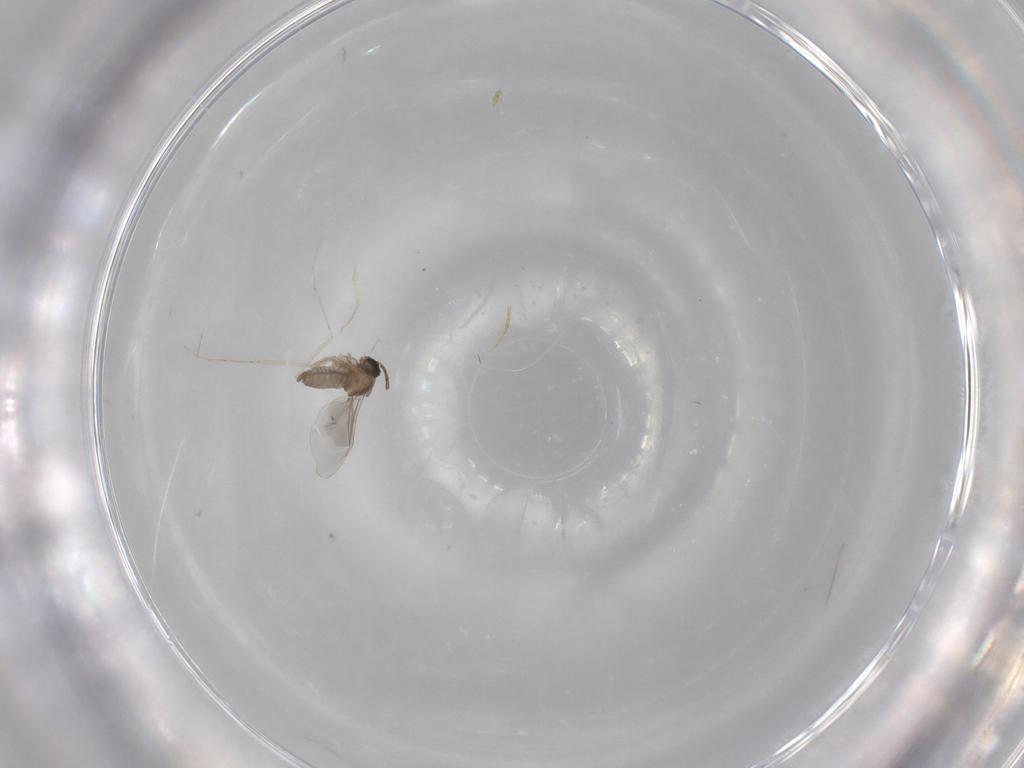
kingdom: Animalia
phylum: Arthropoda
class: Insecta
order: Diptera
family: Cecidomyiidae
